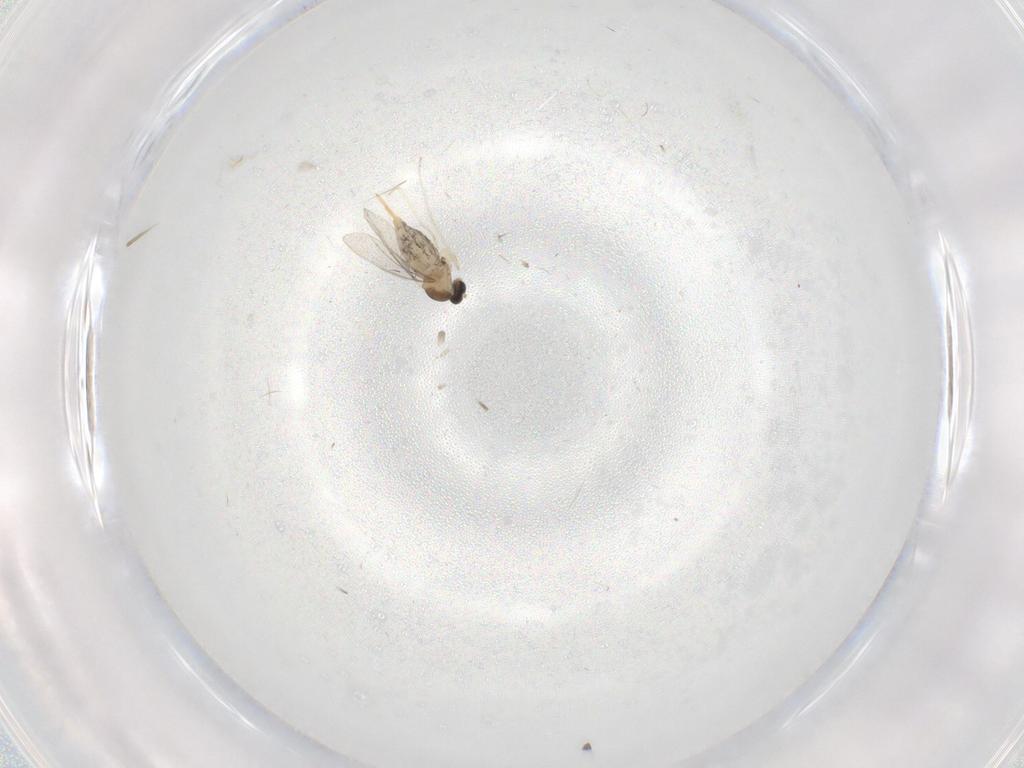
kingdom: Animalia
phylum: Arthropoda
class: Insecta
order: Diptera
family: Cecidomyiidae
